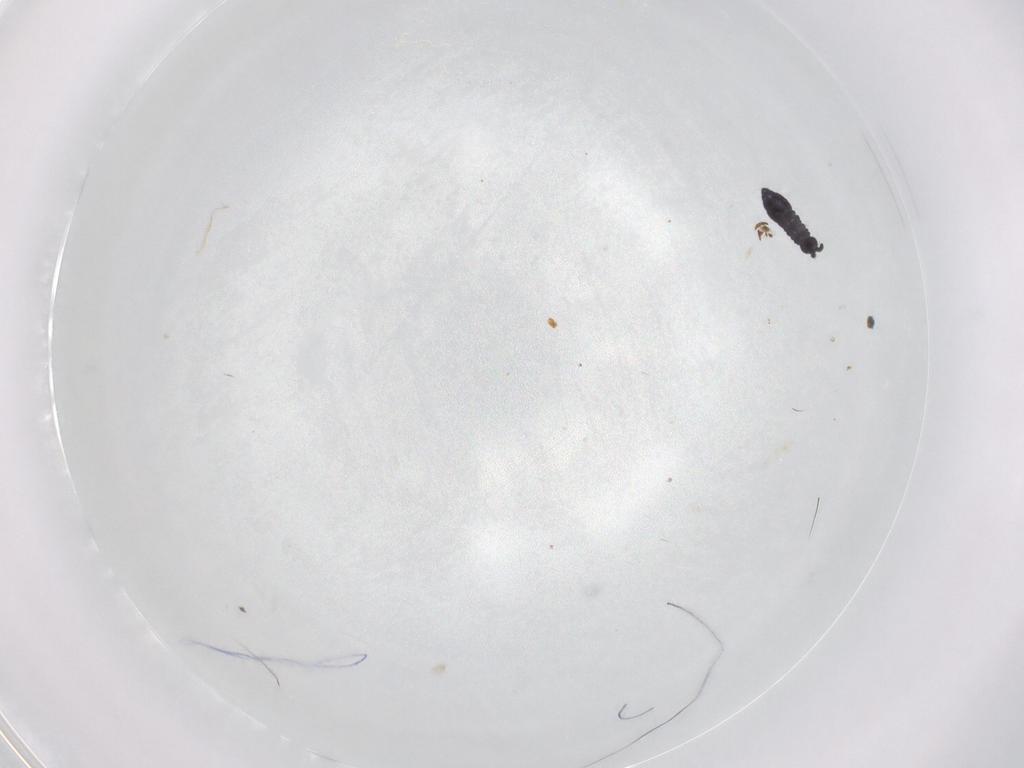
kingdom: Animalia
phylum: Arthropoda
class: Collembola
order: Poduromorpha
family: Hypogastruridae
